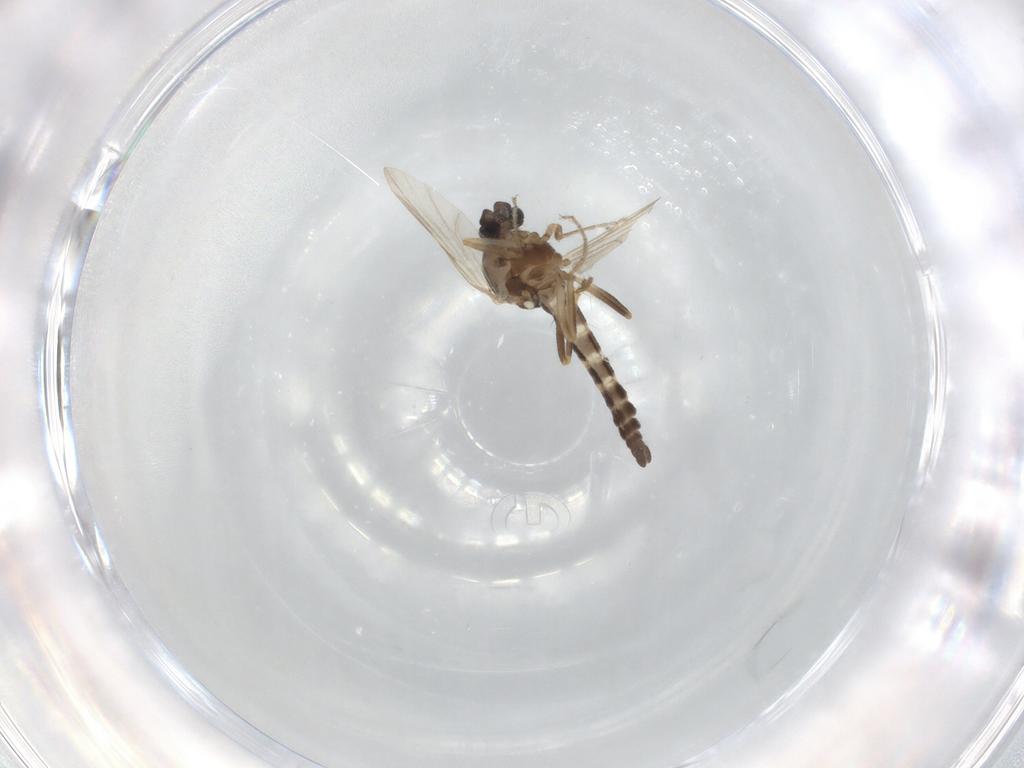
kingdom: Animalia
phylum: Arthropoda
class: Insecta
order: Diptera
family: Ceratopogonidae
